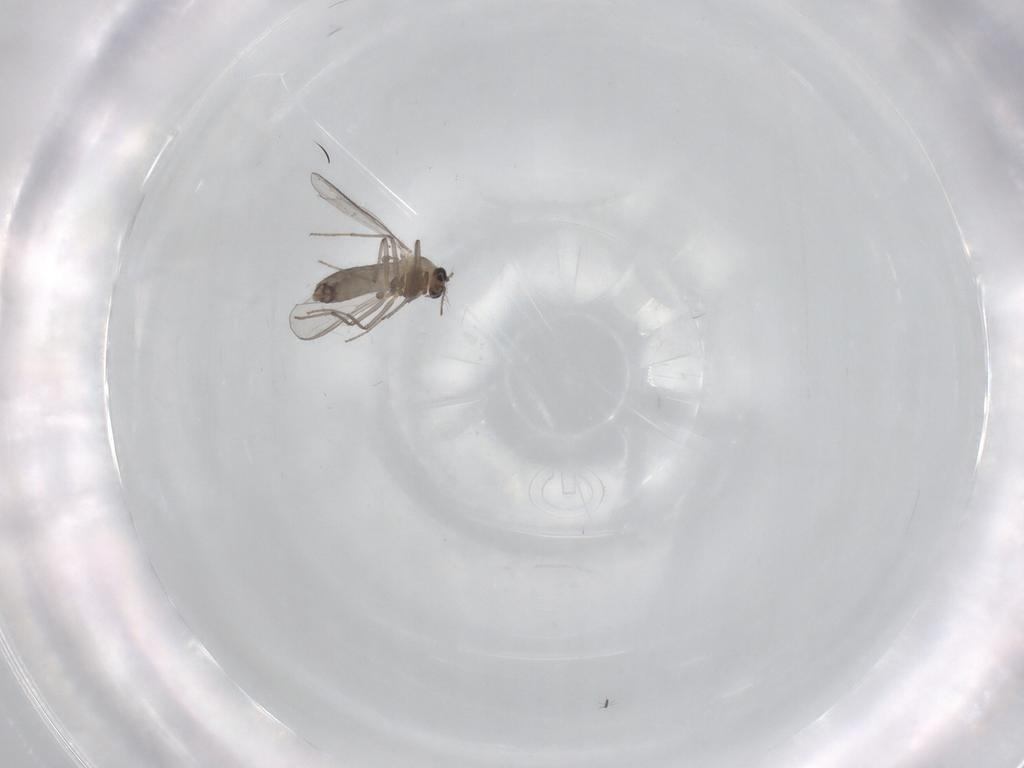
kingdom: Animalia
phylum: Arthropoda
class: Insecta
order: Diptera
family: Chironomidae
